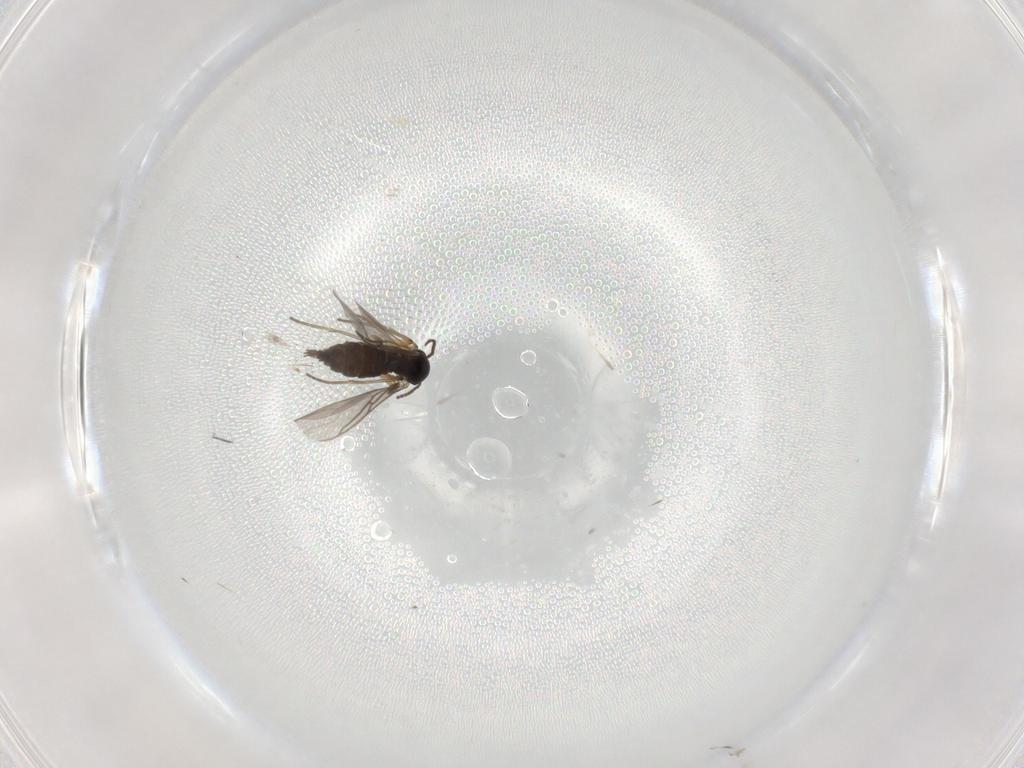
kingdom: Animalia
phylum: Arthropoda
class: Insecta
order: Diptera
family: Sciaridae
